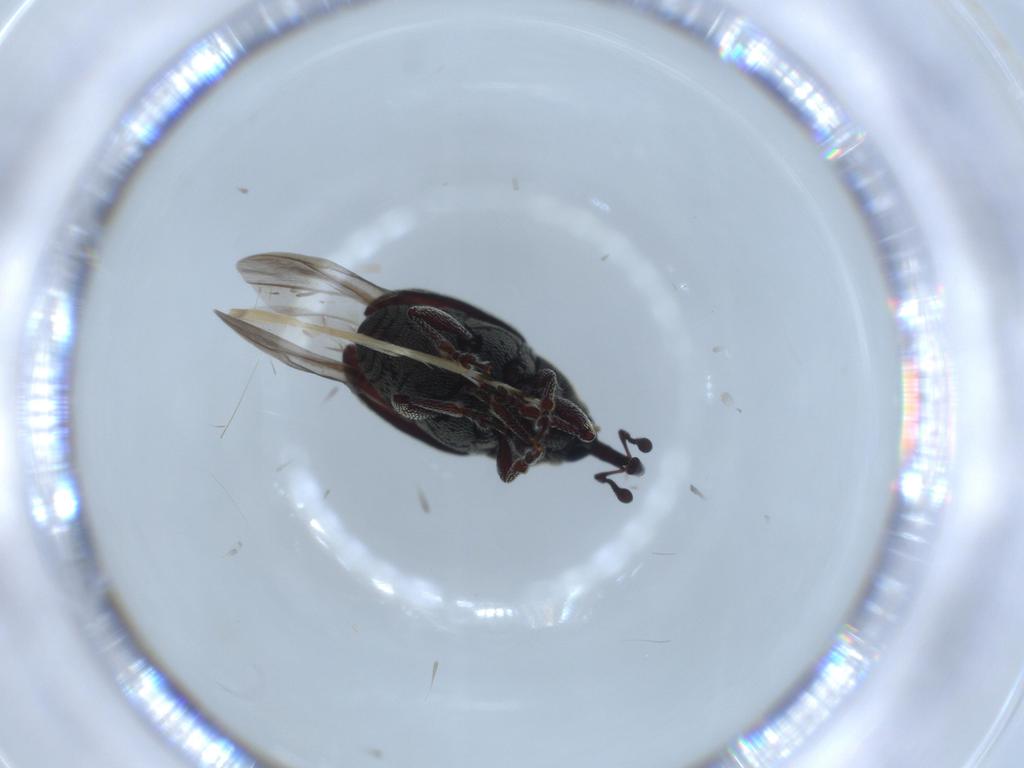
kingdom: Animalia
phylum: Arthropoda
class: Insecta
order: Coleoptera
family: Curculionidae
